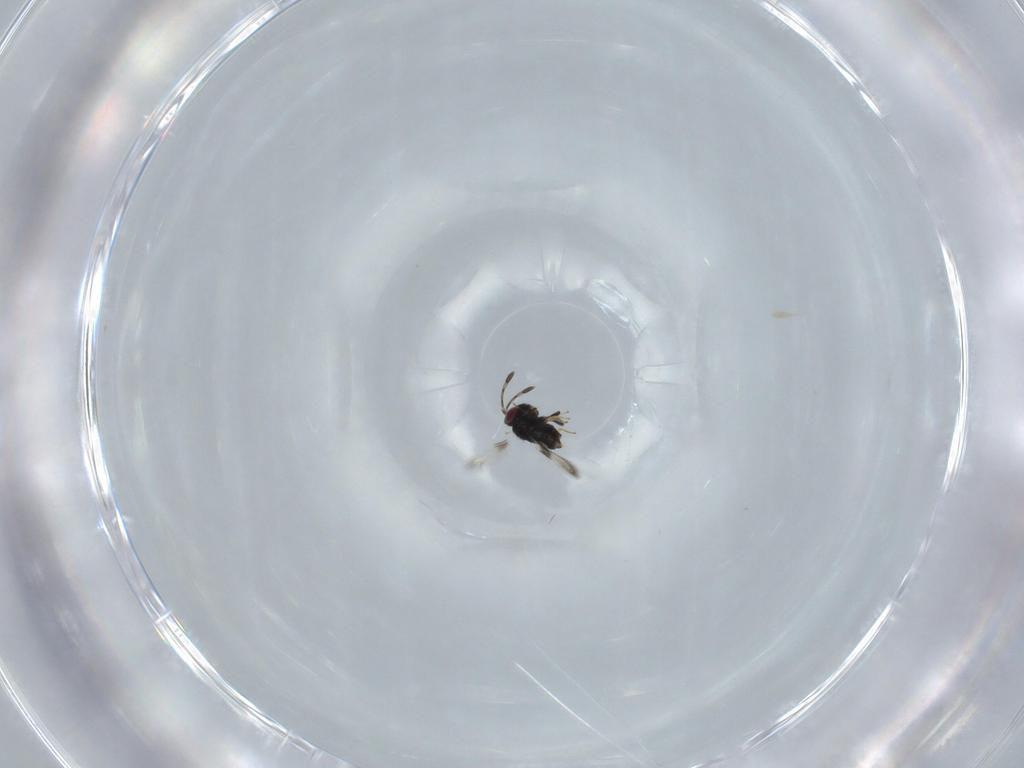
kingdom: Animalia
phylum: Arthropoda
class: Insecta
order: Hymenoptera
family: Azotidae
